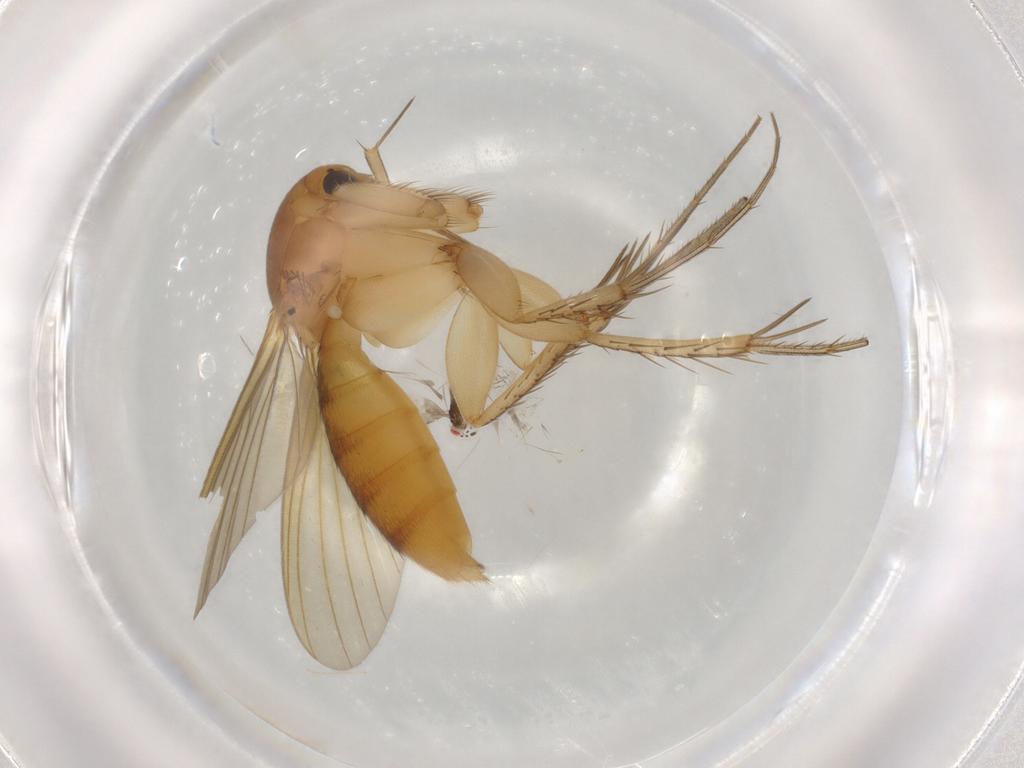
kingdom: Animalia
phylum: Arthropoda
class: Insecta
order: Diptera
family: Mycetophilidae
